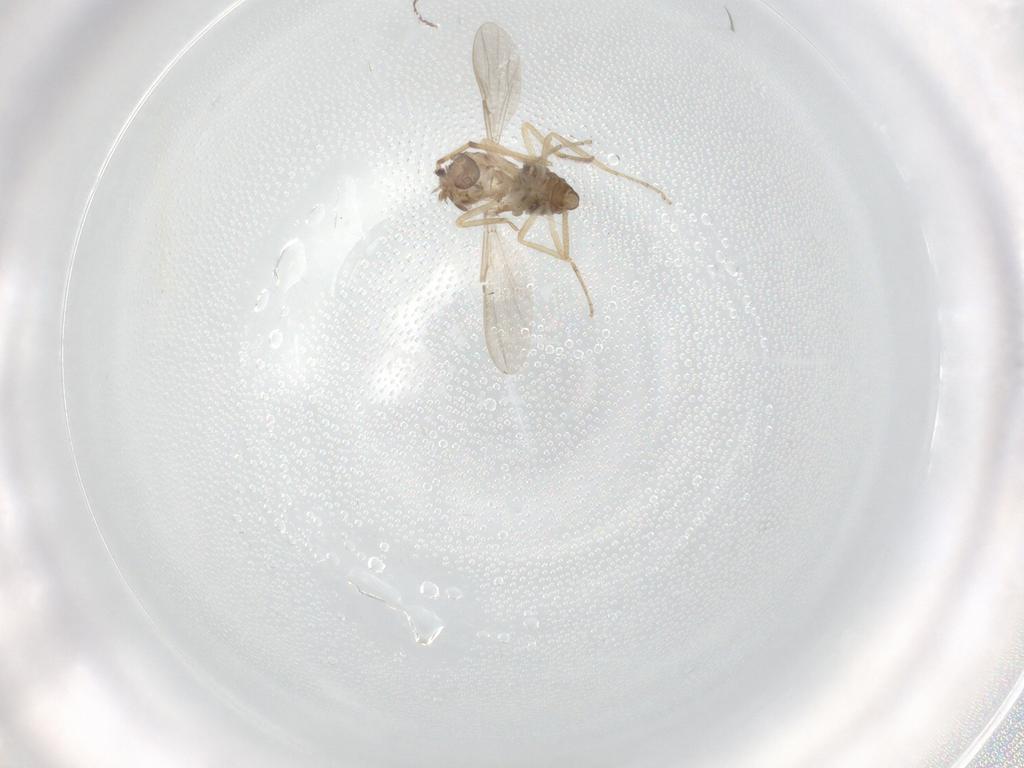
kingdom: Animalia
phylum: Arthropoda
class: Insecta
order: Diptera
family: Ceratopogonidae
